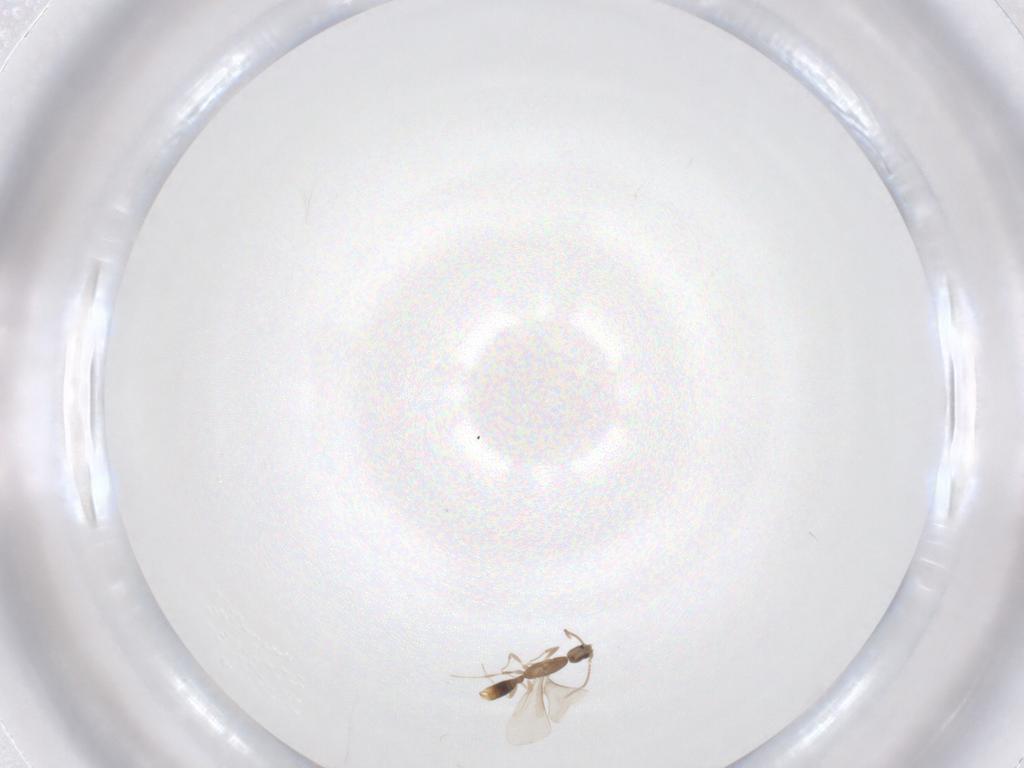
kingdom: Animalia
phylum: Arthropoda
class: Insecta
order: Hymenoptera
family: Formicidae
